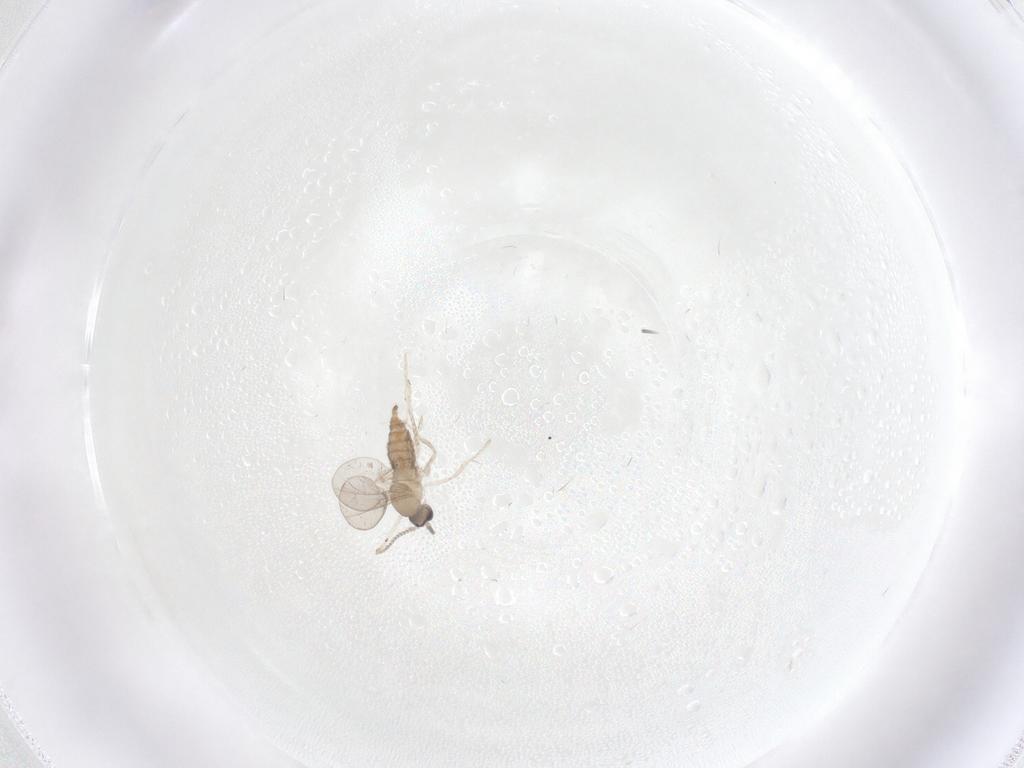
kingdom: Animalia
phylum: Arthropoda
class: Insecta
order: Diptera
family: Cecidomyiidae
